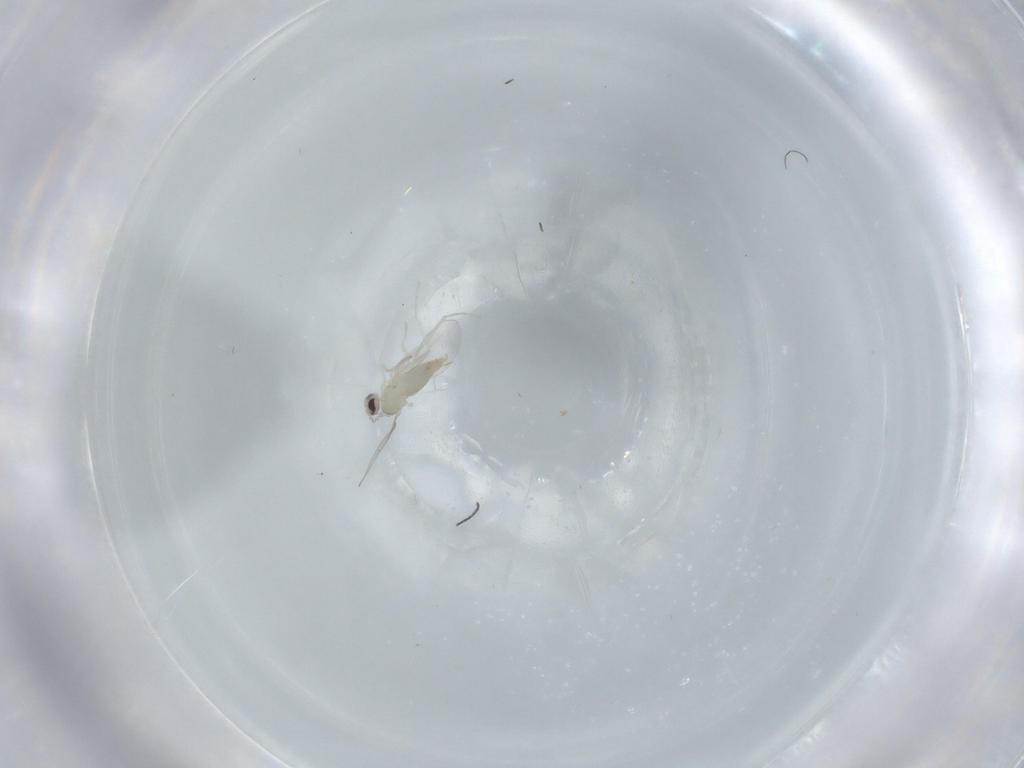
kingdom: Animalia
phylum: Arthropoda
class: Insecta
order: Diptera
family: Cecidomyiidae
